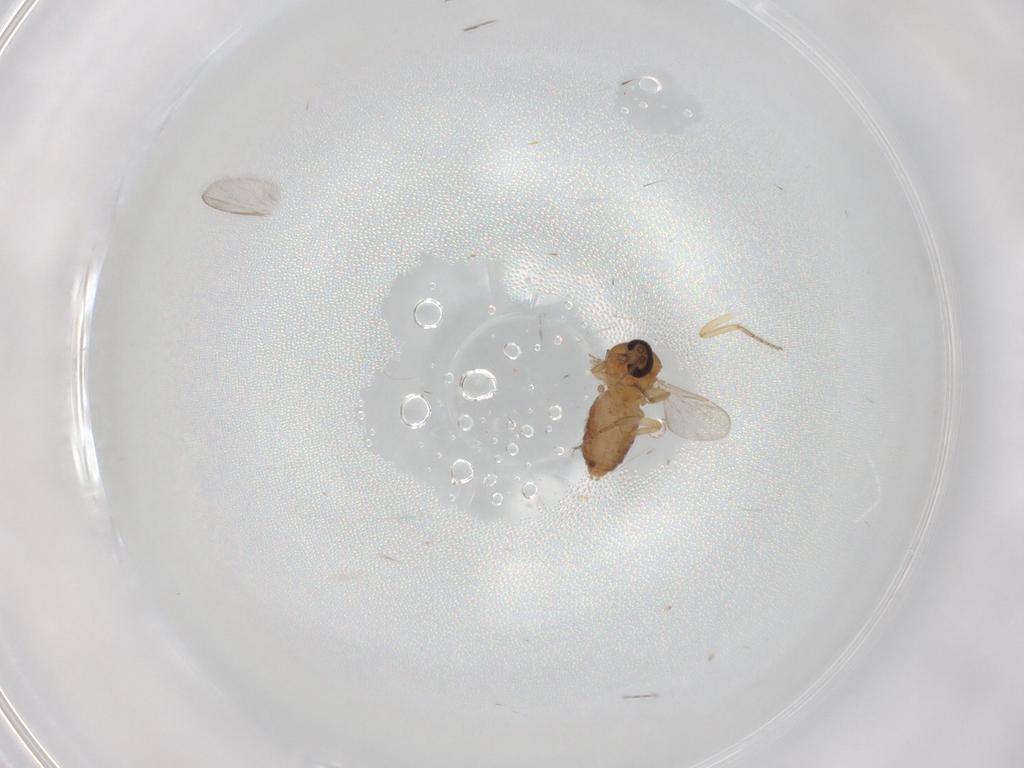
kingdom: Animalia
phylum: Arthropoda
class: Insecta
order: Diptera
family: Ceratopogonidae
